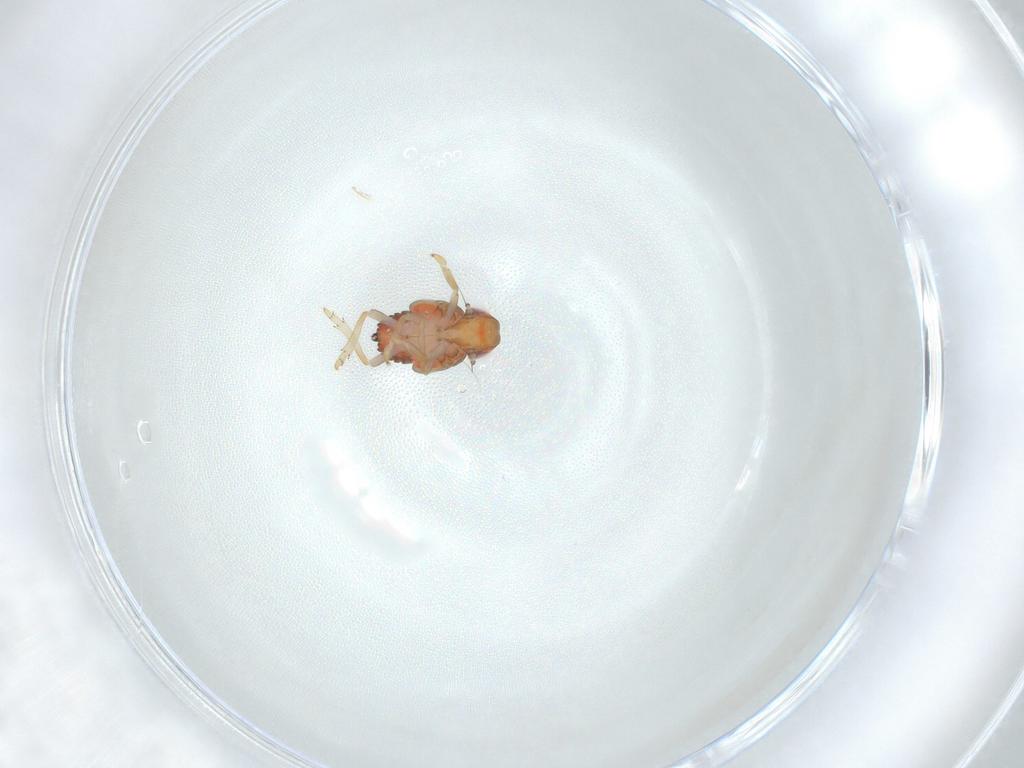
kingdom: Animalia
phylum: Arthropoda
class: Insecta
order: Hemiptera
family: Issidae
